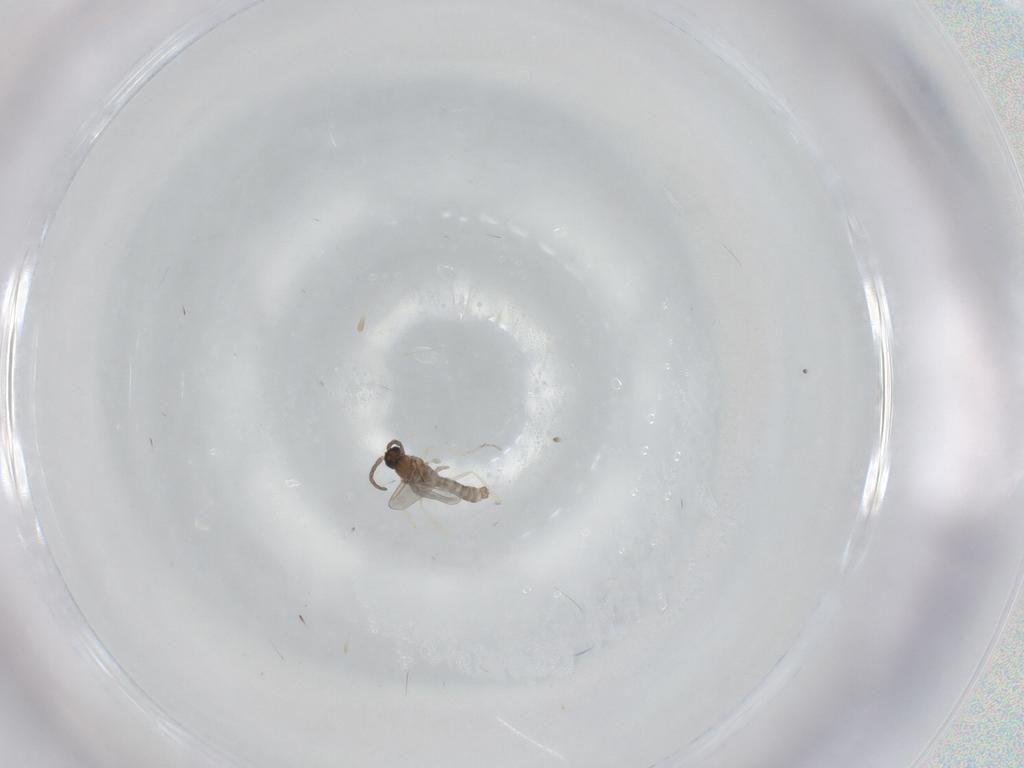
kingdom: Animalia
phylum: Arthropoda
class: Insecta
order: Diptera
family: Cecidomyiidae
